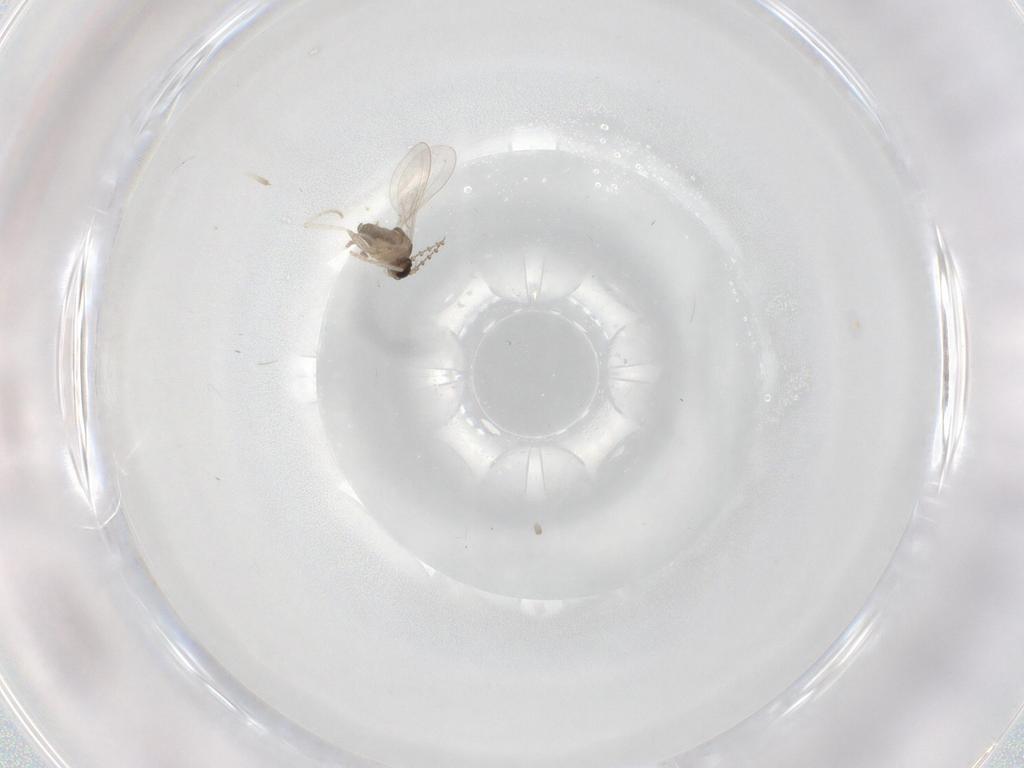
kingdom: Animalia
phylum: Arthropoda
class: Insecta
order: Diptera
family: Cecidomyiidae
